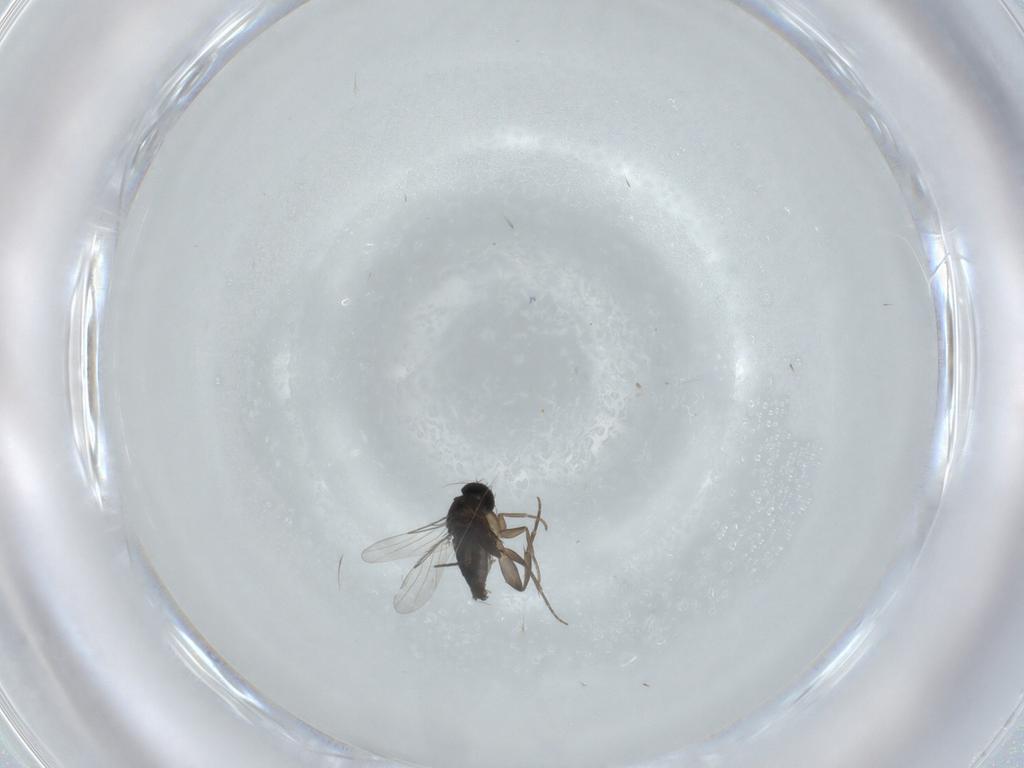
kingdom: Animalia
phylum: Arthropoda
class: Insecta
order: Diptera
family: Phoridae
